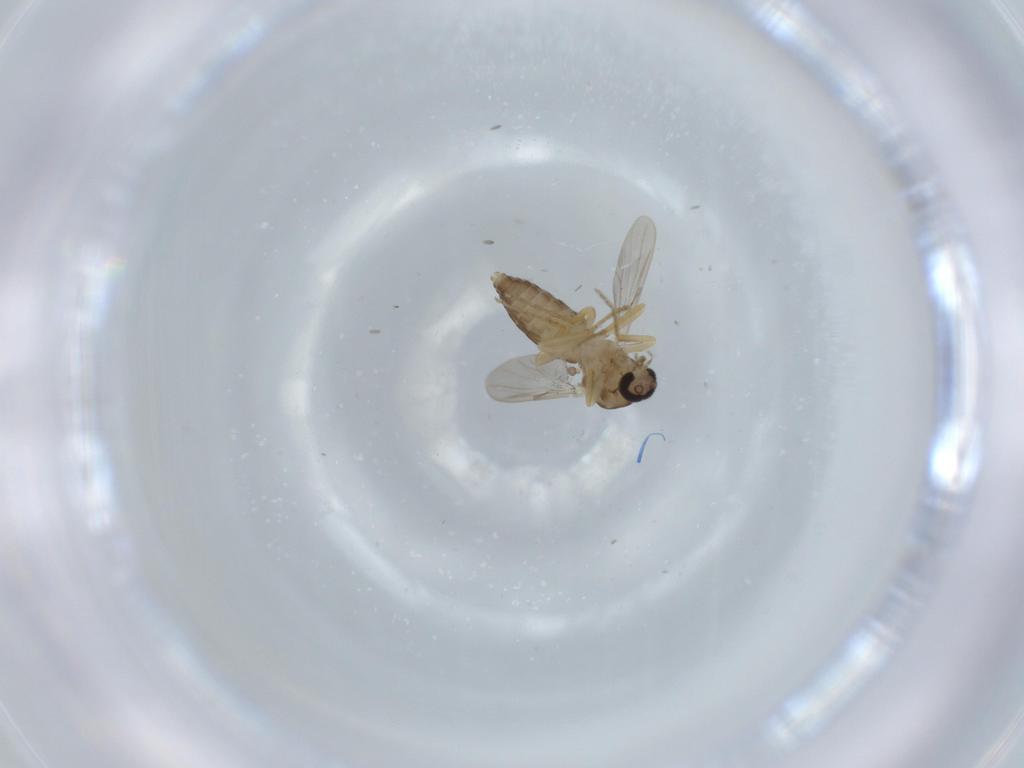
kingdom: Animalia
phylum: Arthropoda
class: Insecta
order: Diptera
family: Ceratopogonidae
